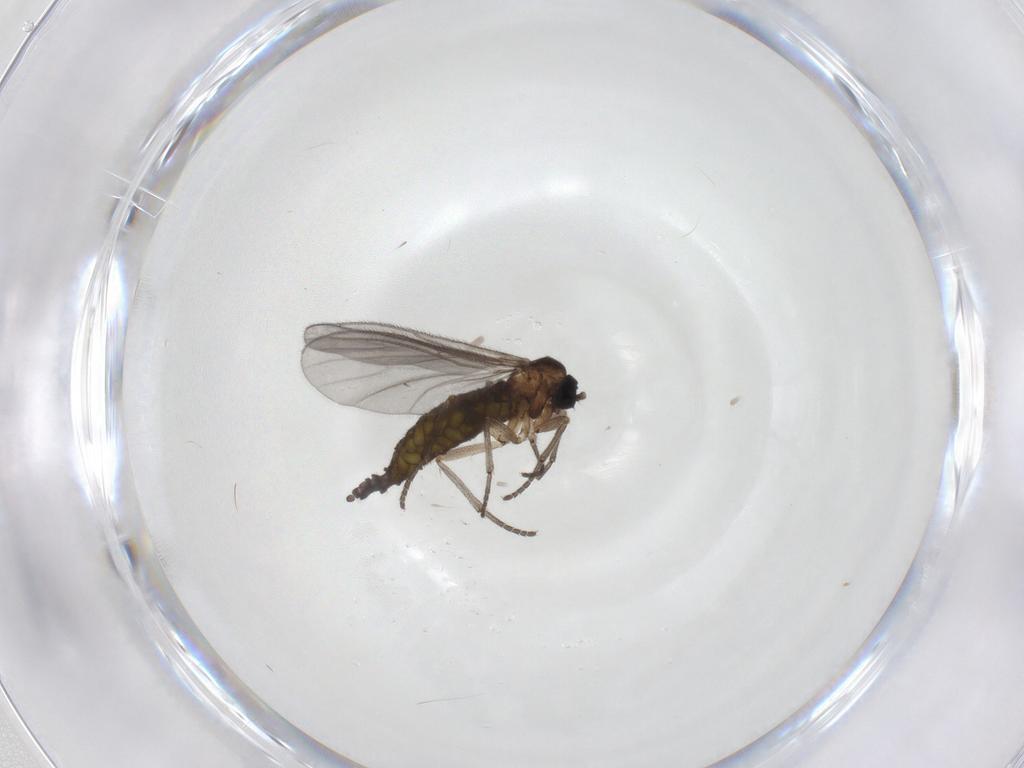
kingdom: Animalia
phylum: Arthropoda
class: Insecta
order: Diptera
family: Sciaridae
